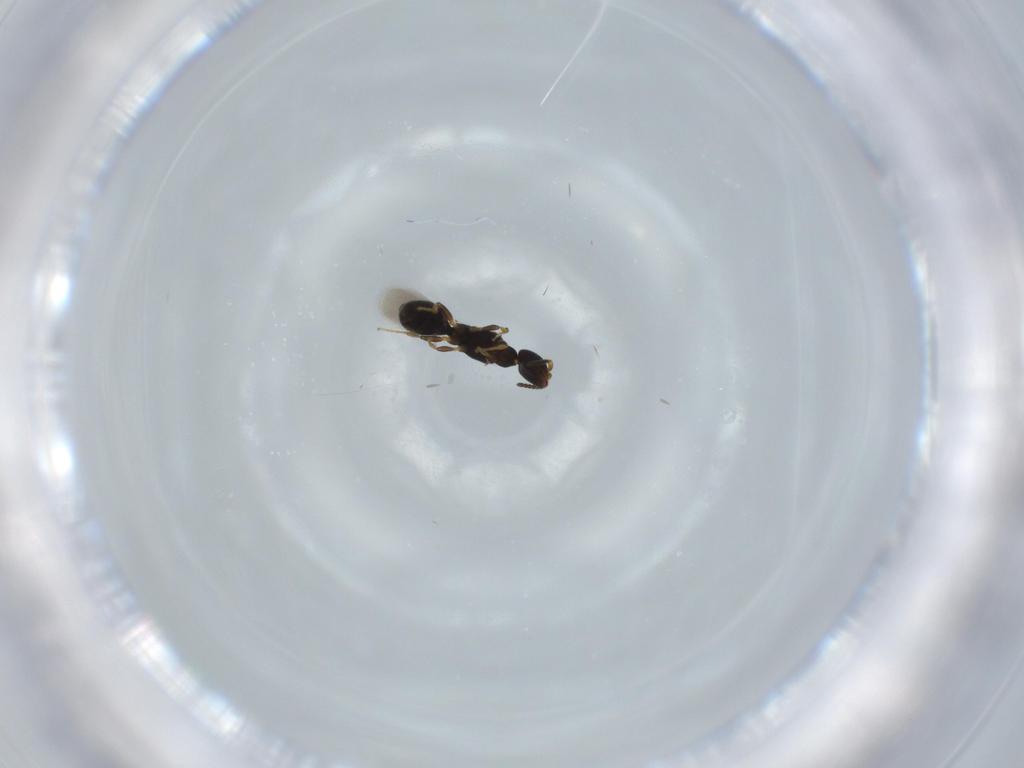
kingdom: Animalia
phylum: Arthropoda
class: Insecta
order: Hymenoptera
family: Bethylidae
